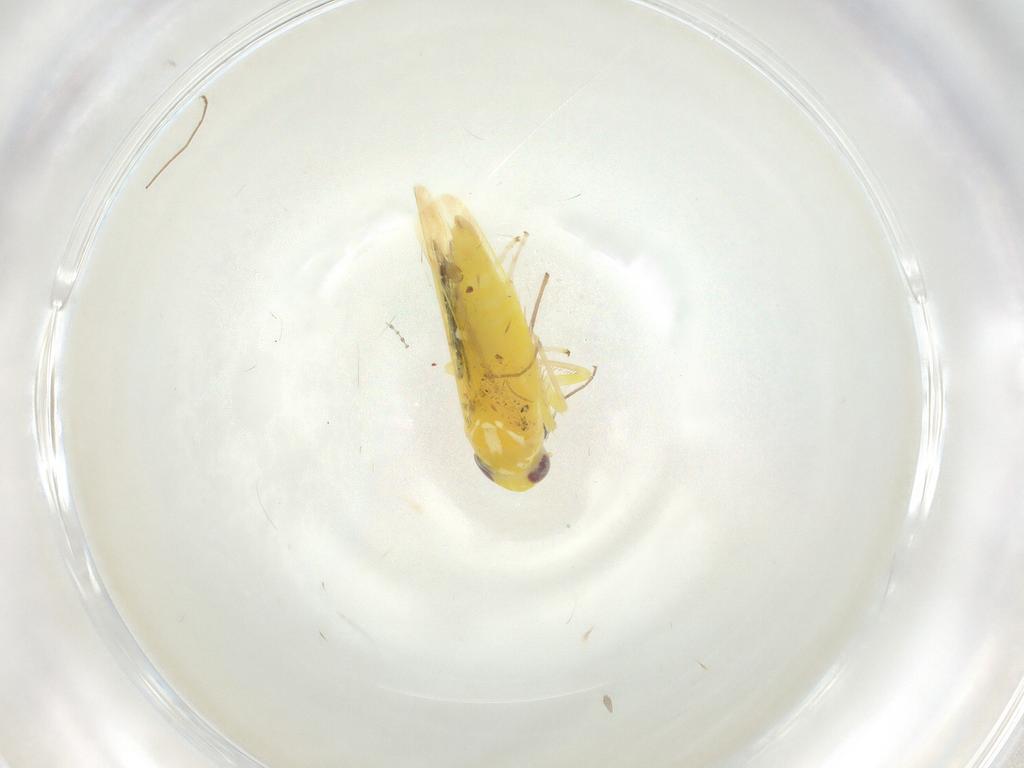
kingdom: Animalia
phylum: Arthropoda
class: Insecta
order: Hemiptera
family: Cicadellidae
